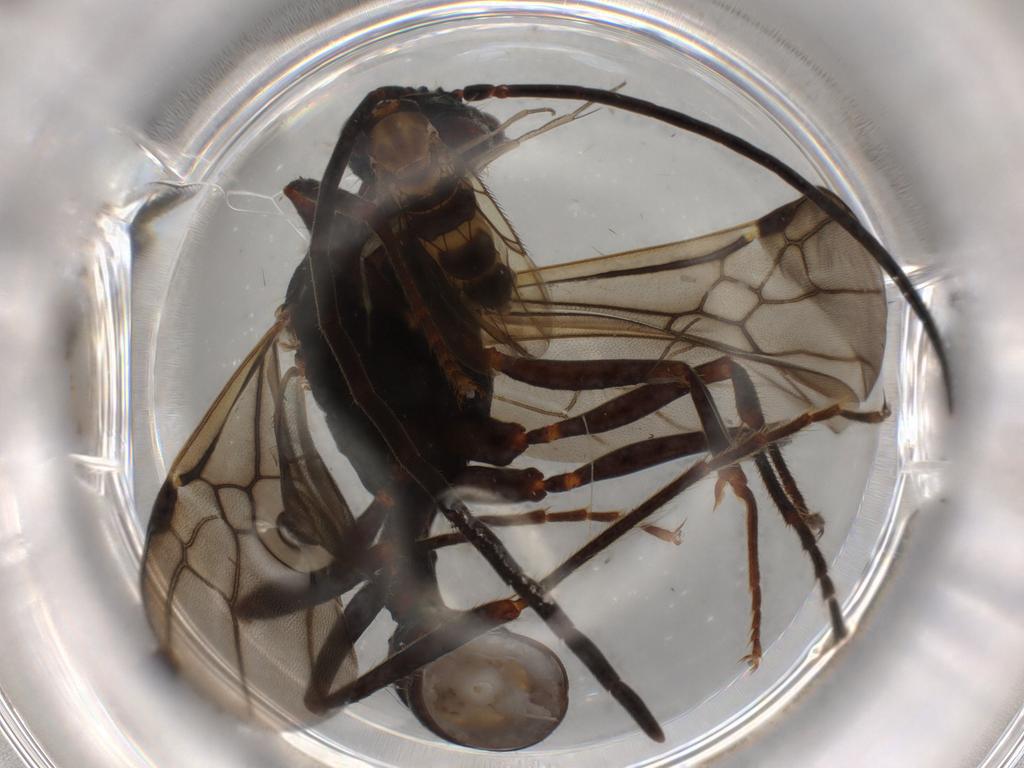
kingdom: Animalia
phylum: Arthropoda
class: Insecta
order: Hymenoptera
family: Formicidae
